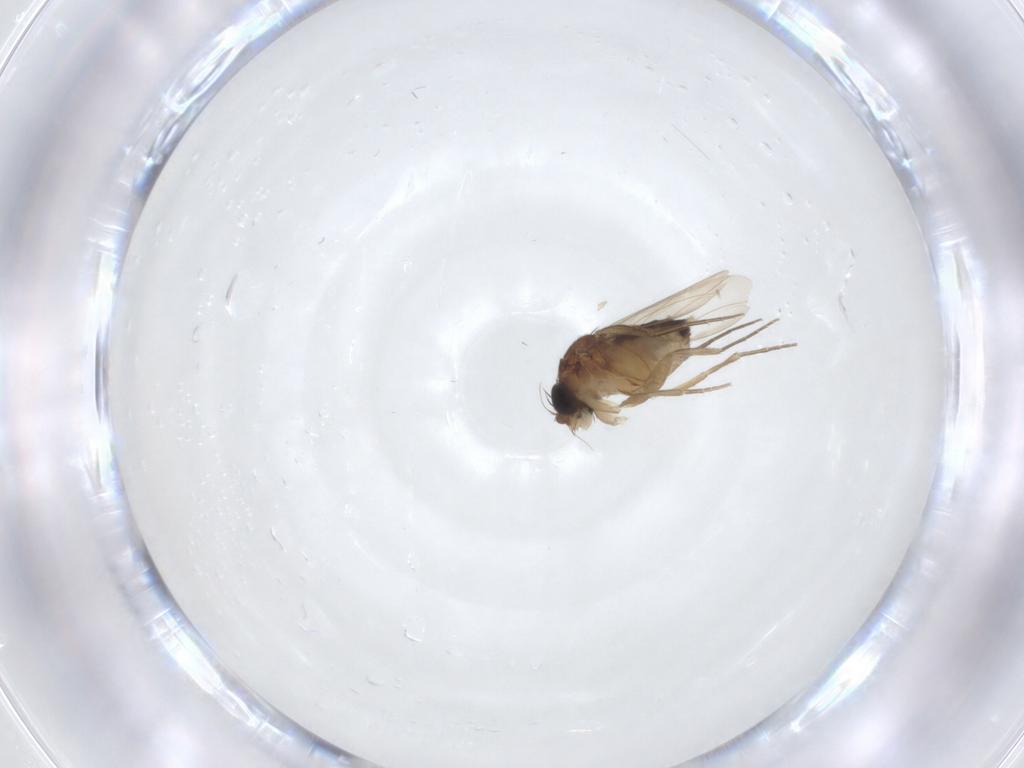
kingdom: Animalia
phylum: Arthropoda
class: Insecta
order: Diptera
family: Phoridae
